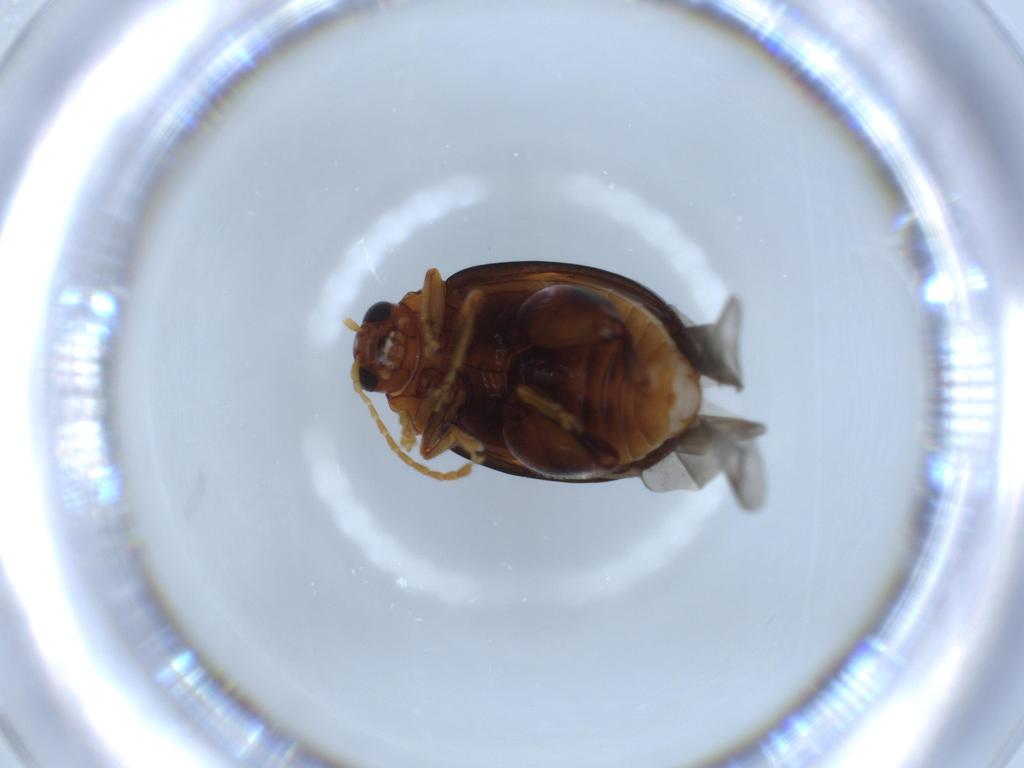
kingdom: Animalia
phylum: Arthropoda
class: Insecta
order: Coleoptera
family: Chrysomelidae
